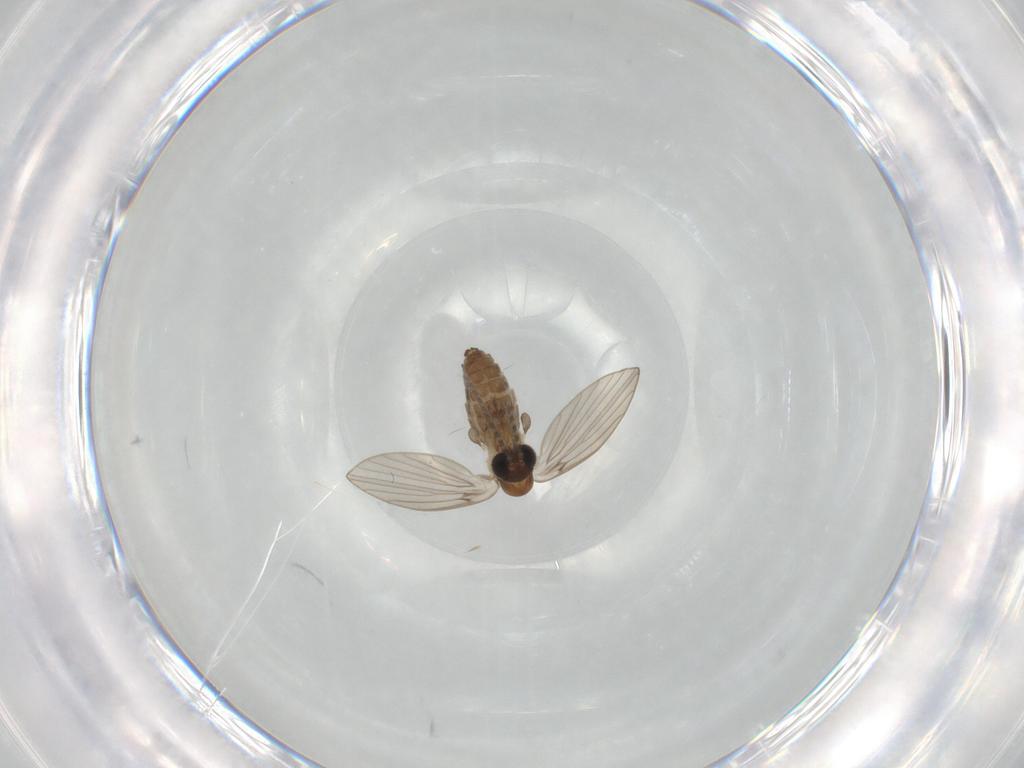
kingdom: Animalia
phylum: Arthropoda
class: Insecta
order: Diptera
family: Psychodidae
